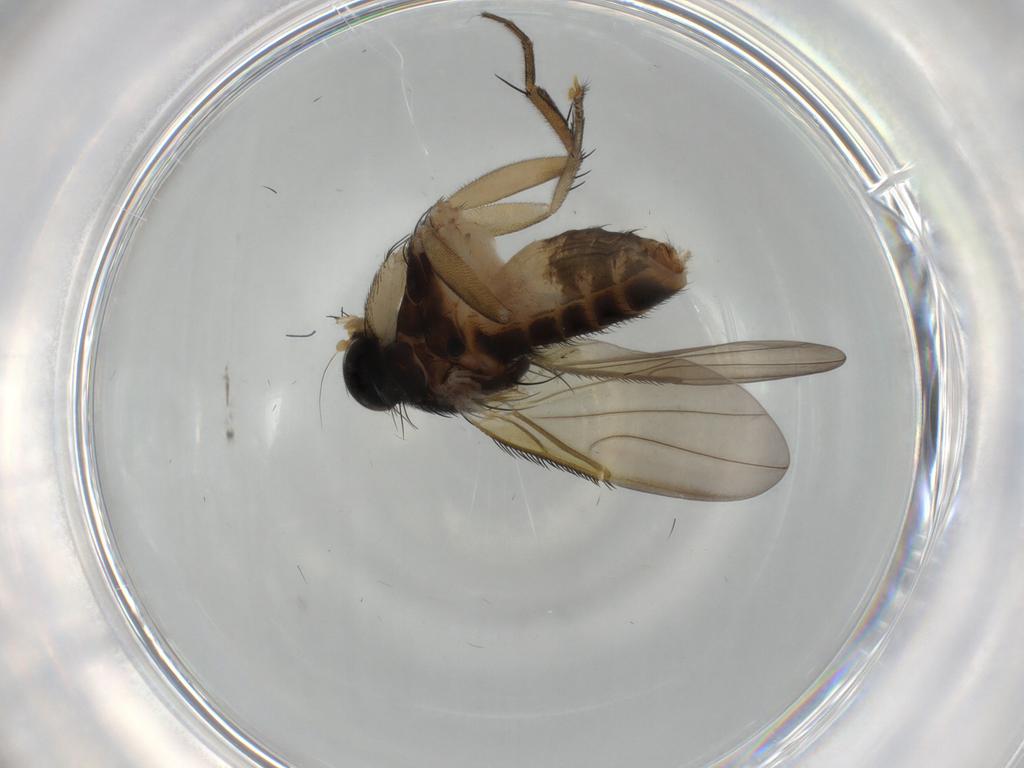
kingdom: Animalia
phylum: Arthropoda
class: Insecta
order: Diptera
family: Phoridae
